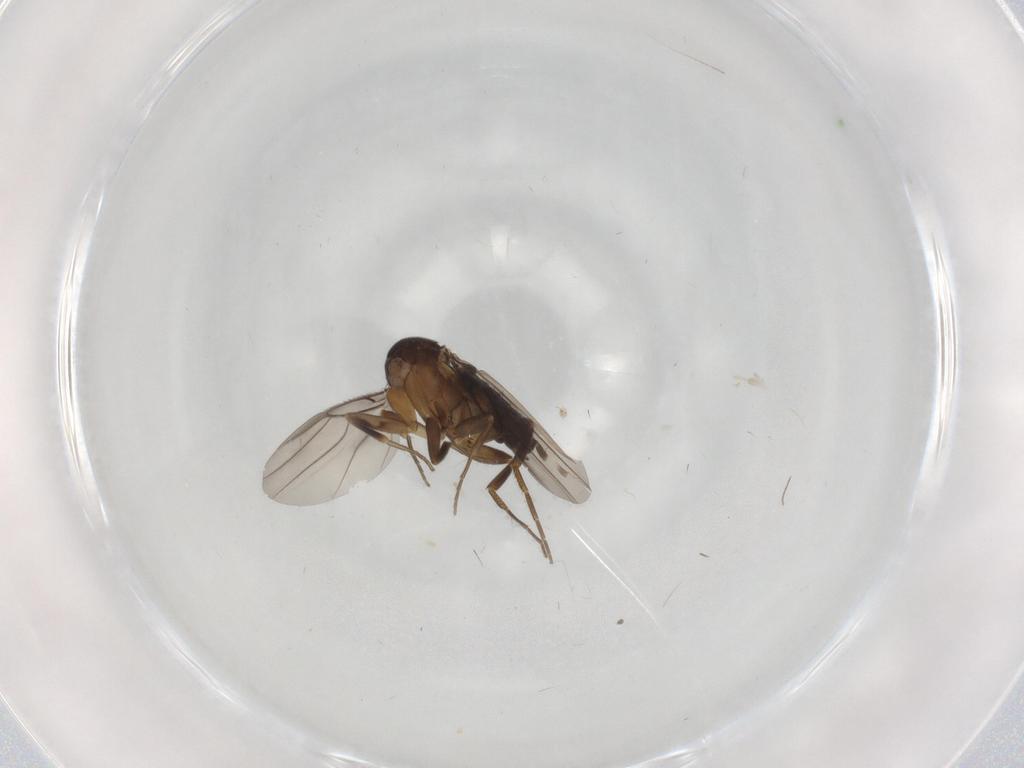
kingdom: Animalia
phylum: Arthropoda
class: Insecta
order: Diptera
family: Phoridae
